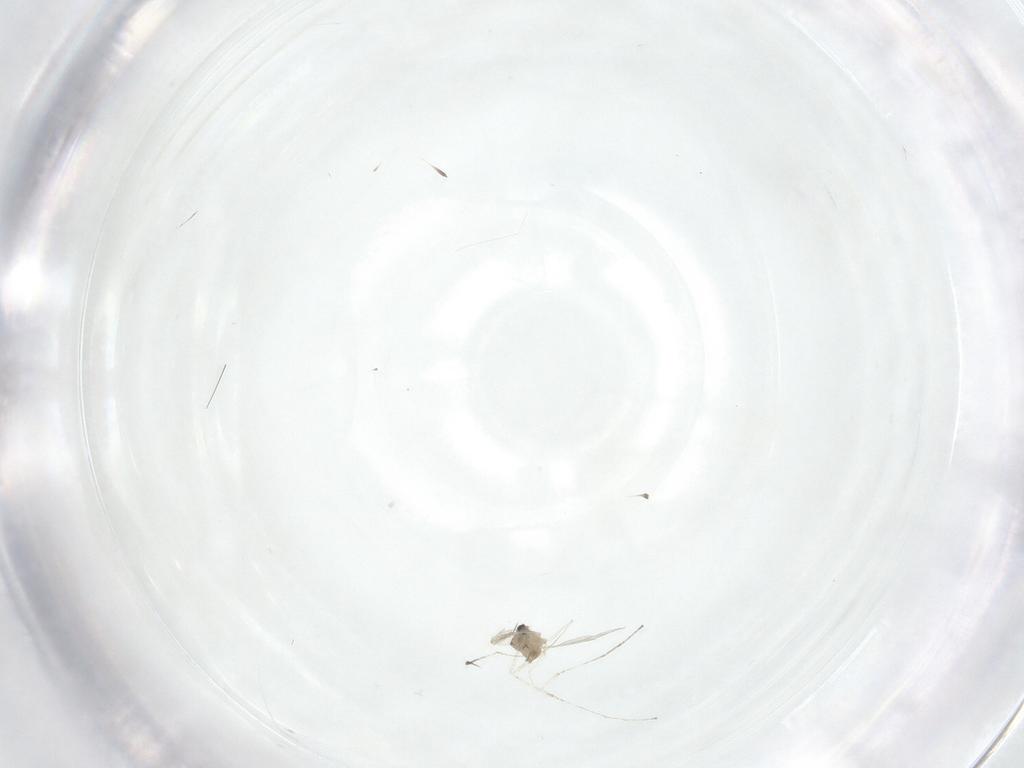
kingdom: Animalia
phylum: Arthropoda
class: Insecta
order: Diptera
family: Cecidomyiidae
